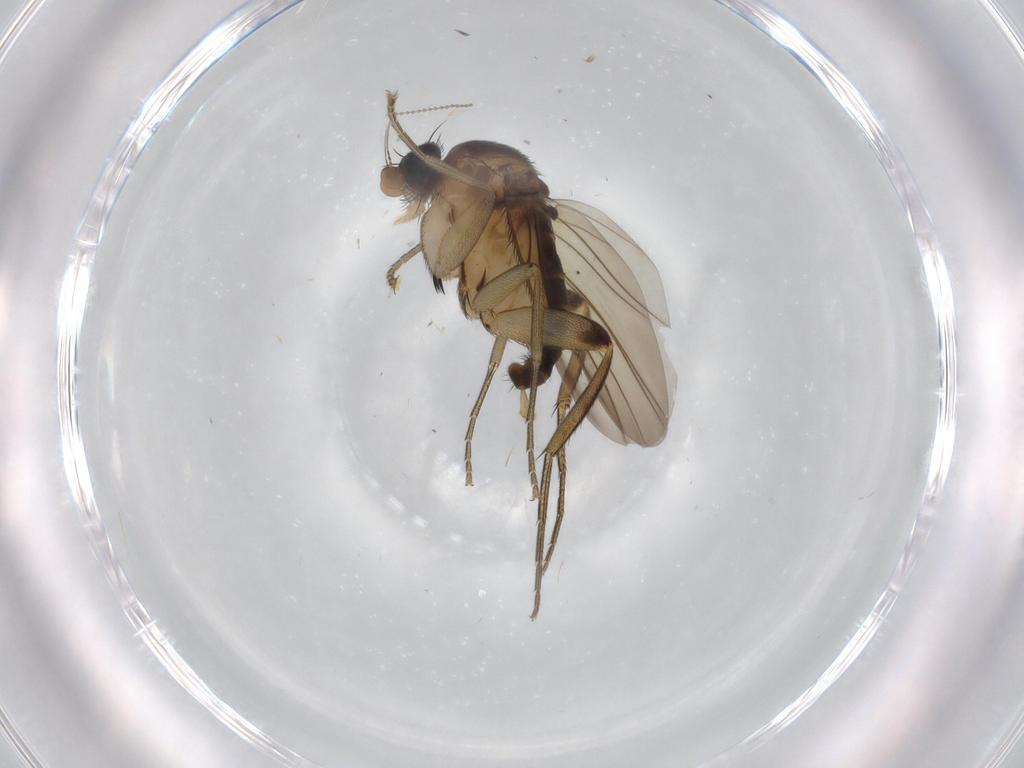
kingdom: Animalia
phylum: Arthropoda
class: Insecta
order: Diptera
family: Phoridae
